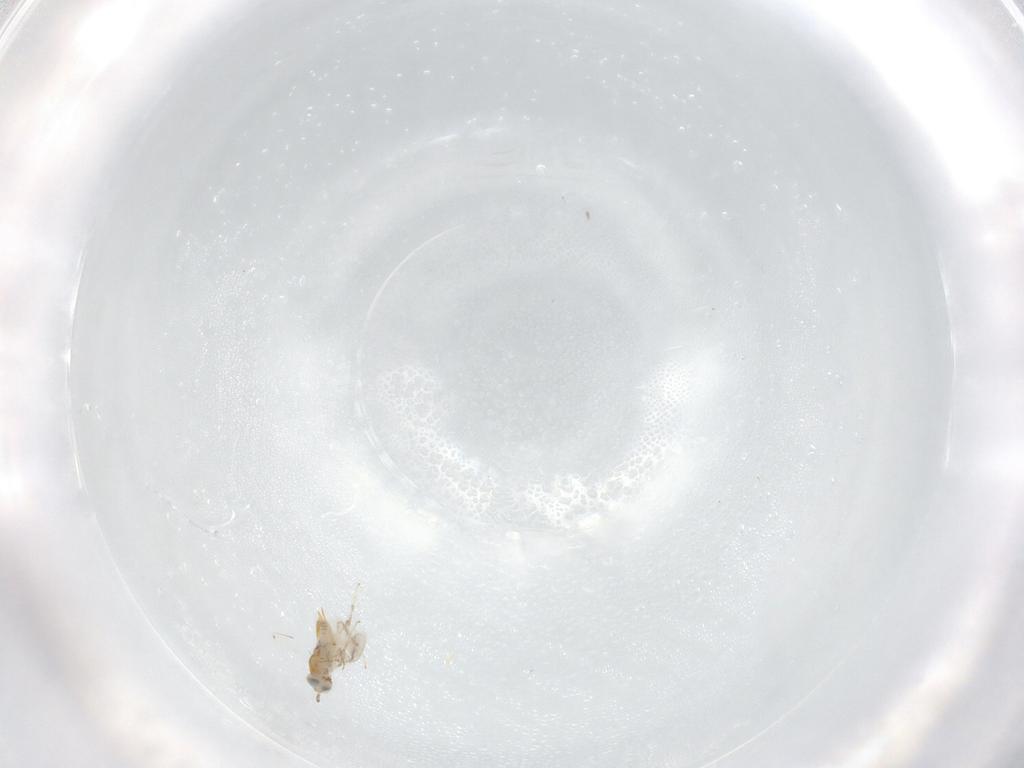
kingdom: Animalia
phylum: Arthropoda
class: Insecta
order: Hymenoptera
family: Aphelinidae
